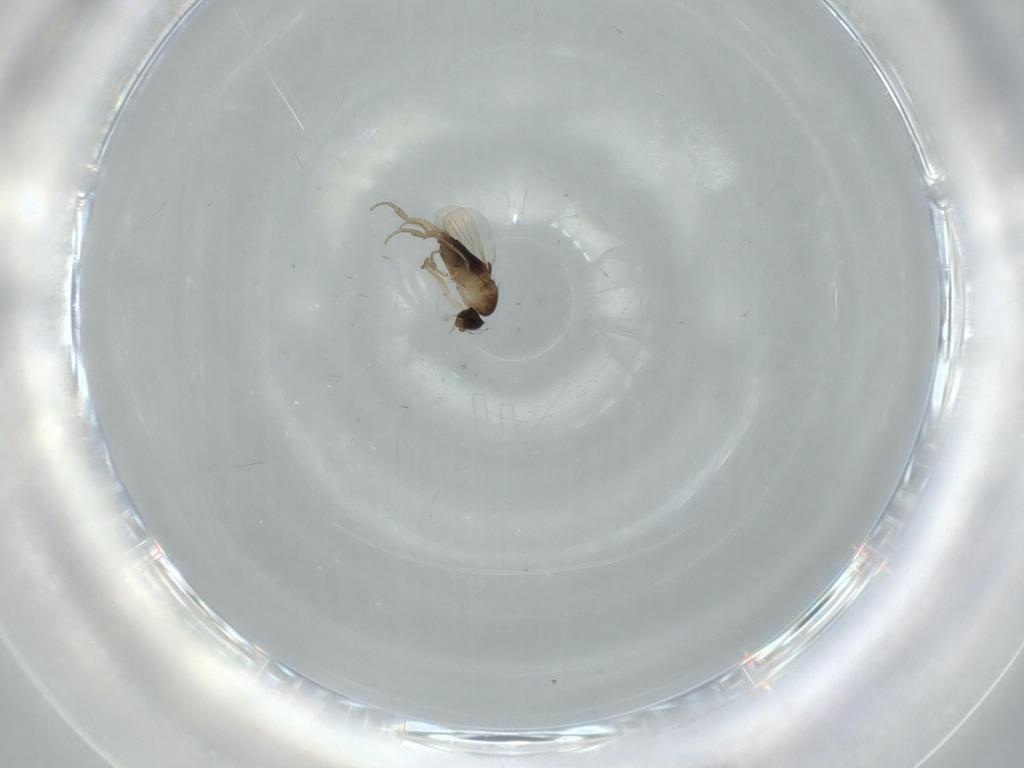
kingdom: Animalia
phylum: Arthropoda
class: Insecta
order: Diptera
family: Phoridae
